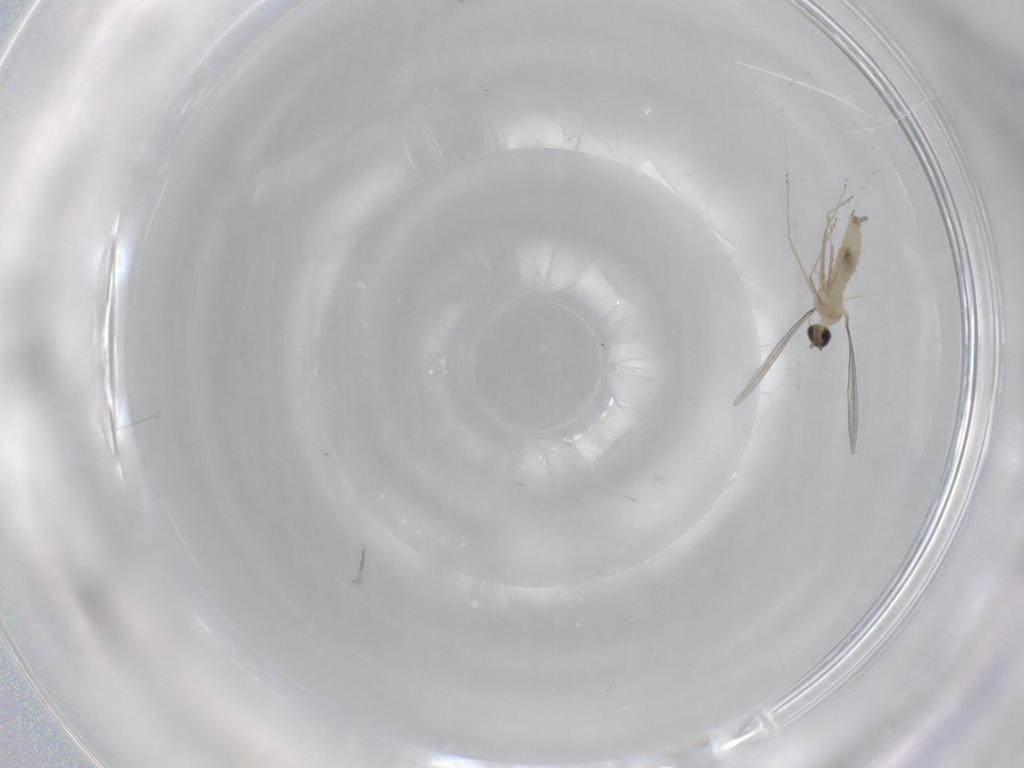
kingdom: Animalia
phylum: Arthropoda
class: Insecta
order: Diptera
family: Cecidomyiidae
